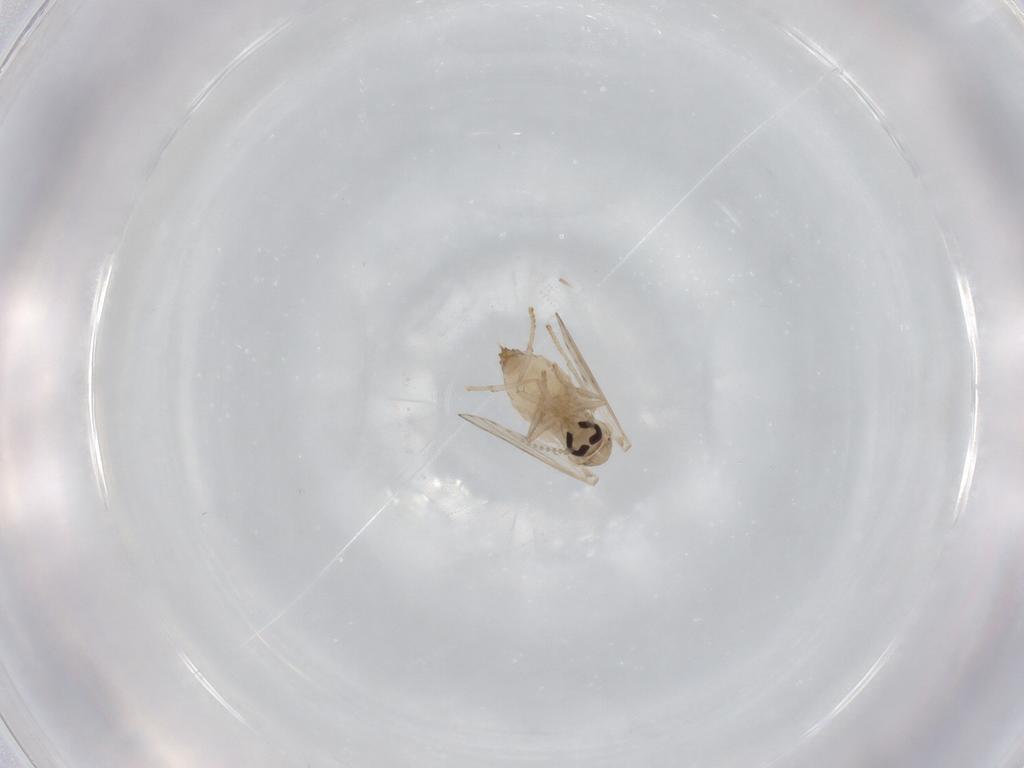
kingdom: Animalia
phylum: Arthropoda
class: Insecta
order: Diptera
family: Psychodidae
